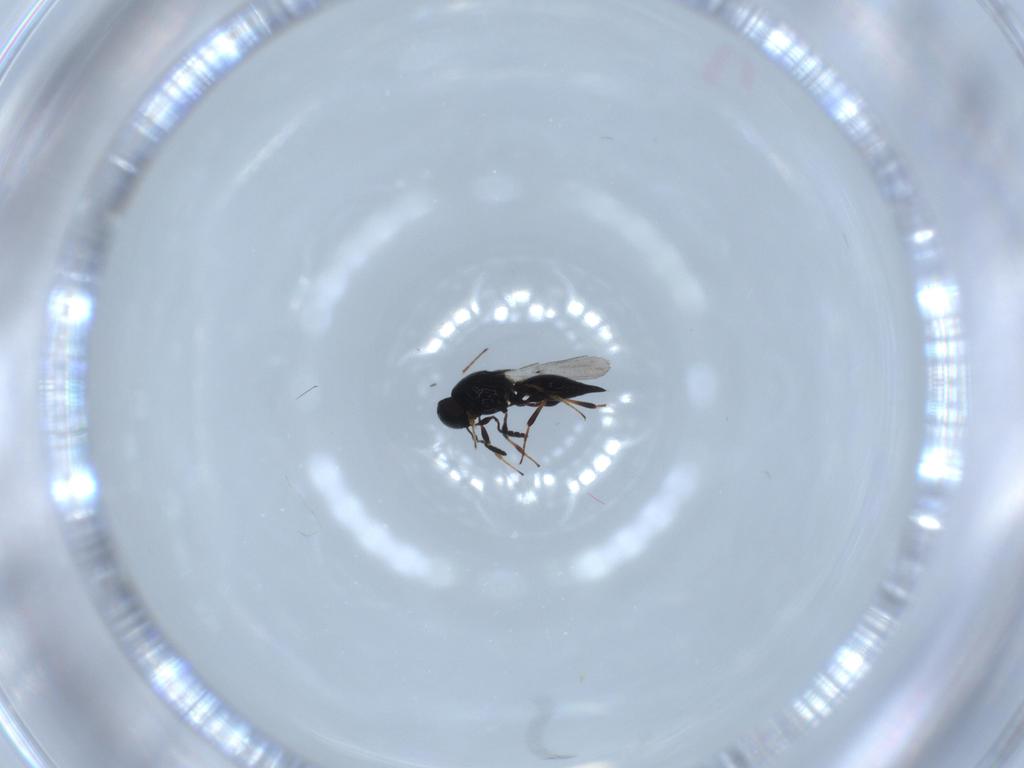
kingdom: Animalia
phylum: Arthropoda
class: Insecta
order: Hymenoptera
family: Platygastridae
